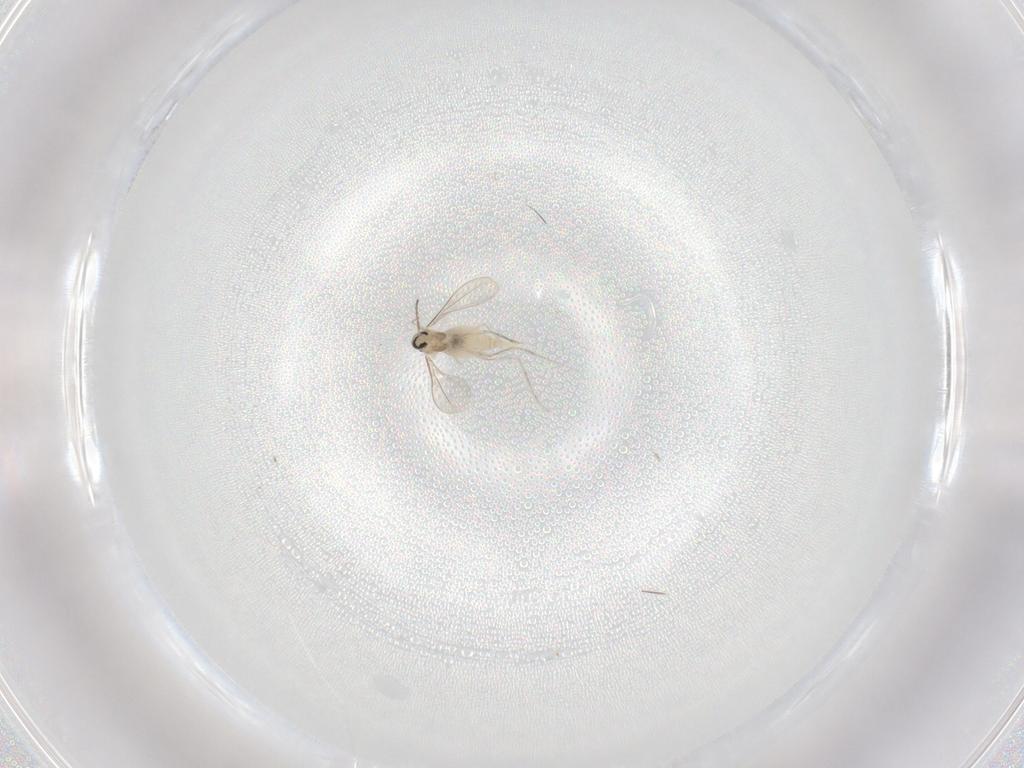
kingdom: Animalia
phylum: Arthropoda
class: Insecta
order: Diptera
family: Cecidomyiidae
